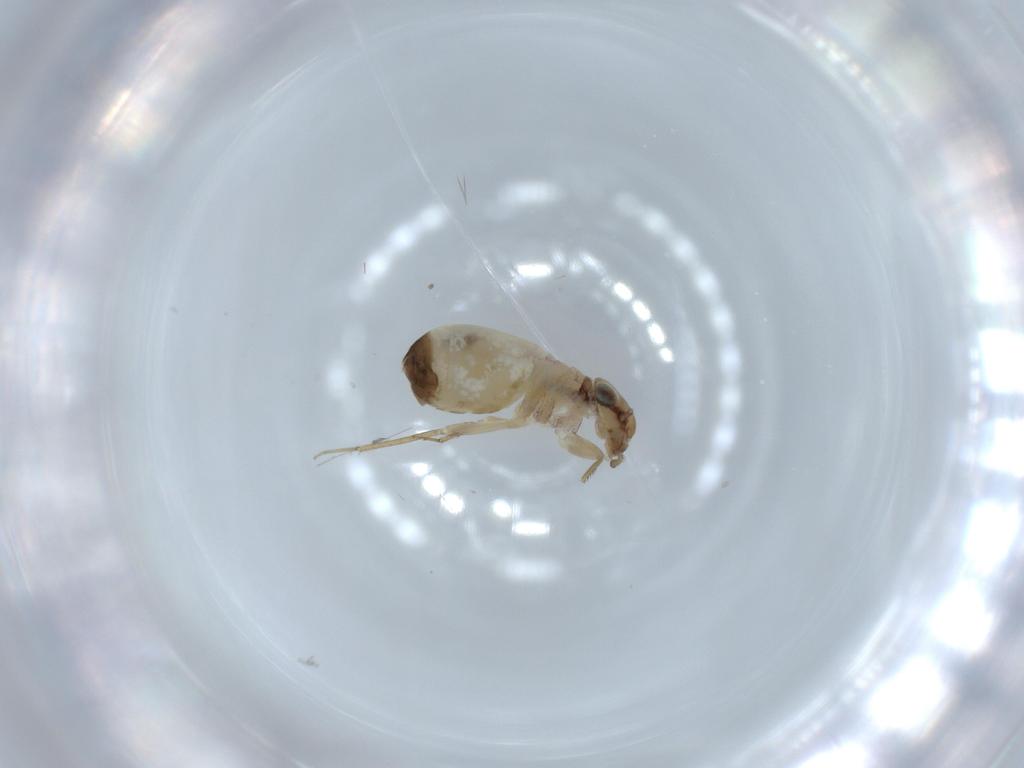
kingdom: Animalia
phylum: Arthropoda
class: Insecta
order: Psocodea
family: Lepidopsocidae
